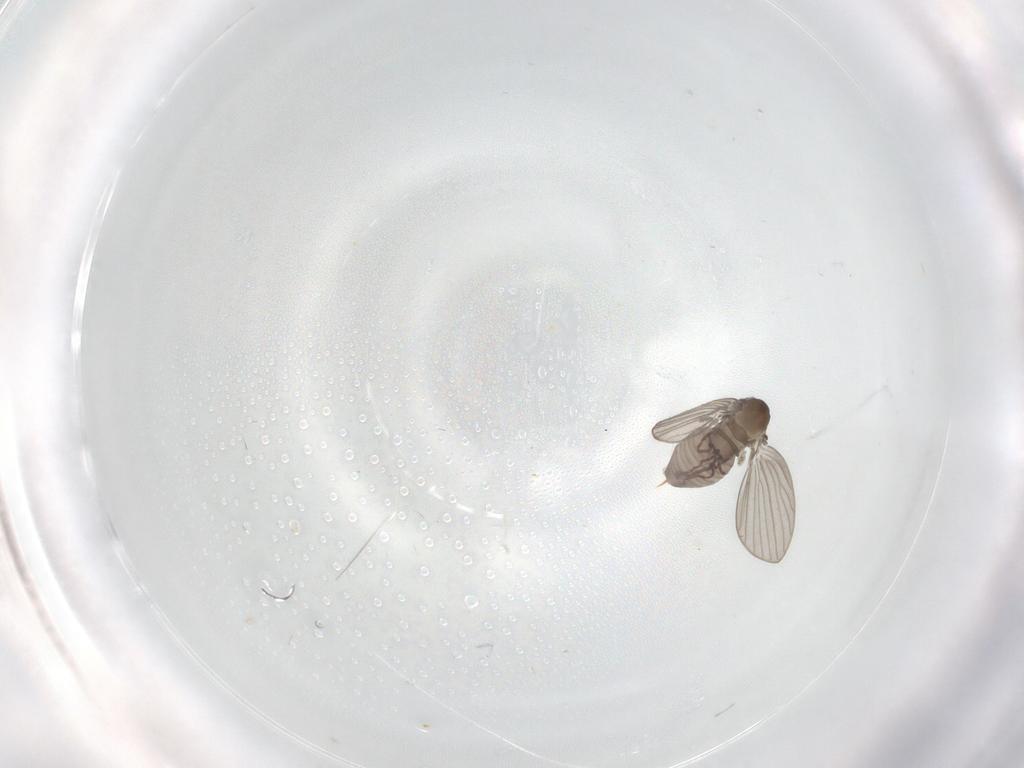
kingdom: Animalia
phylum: Arthropoda
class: Insecta
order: Diptera
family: Psychodidae
